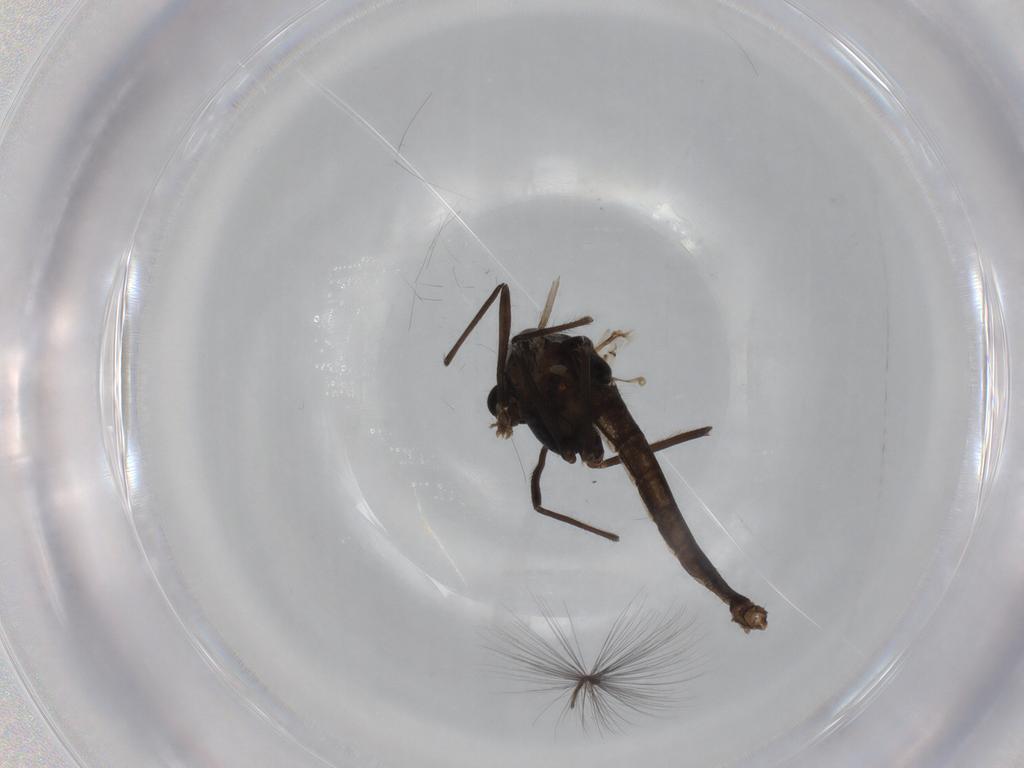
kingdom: Animalia
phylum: Arthropoda
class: Insecta
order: Diptera
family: Chironomidae
